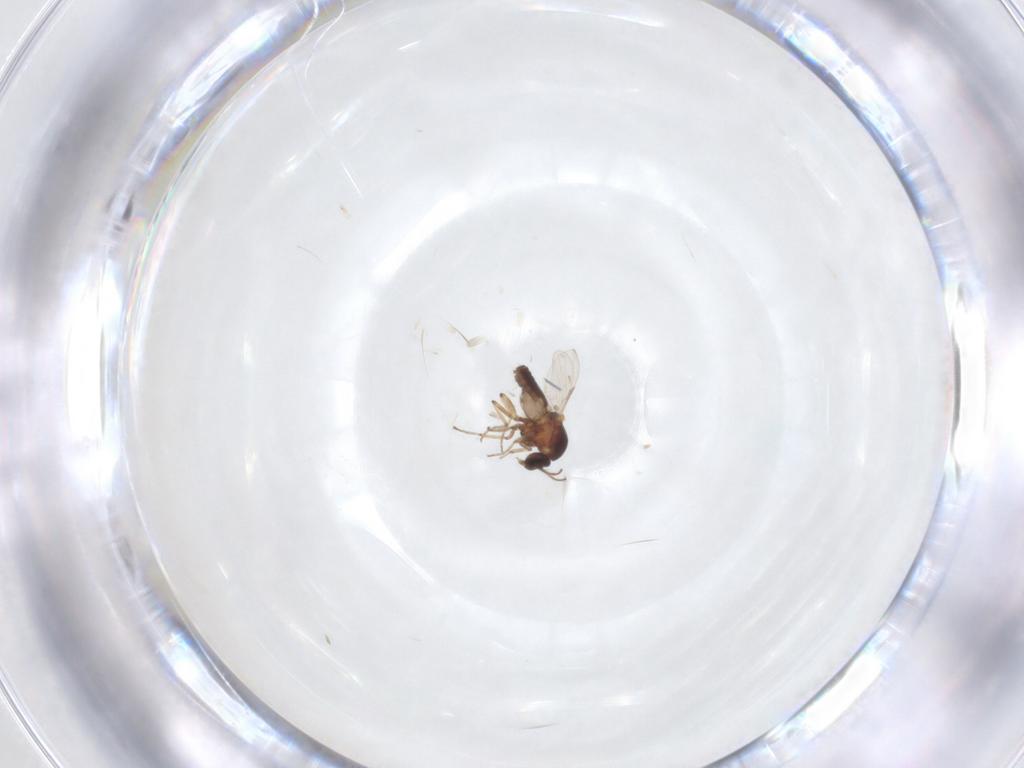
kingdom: Animalia
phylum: Arthropoda
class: Insecta
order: Diptera
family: Ceratopogonidae
